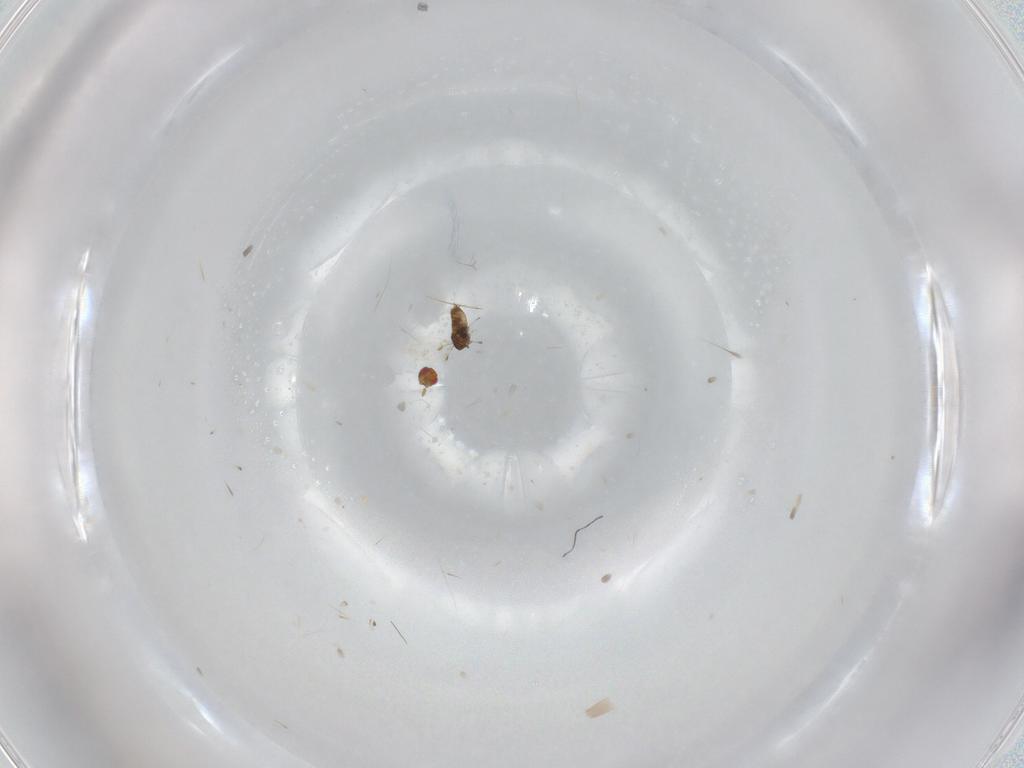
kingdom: Animalia
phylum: Arthropoda
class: Insecta
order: Hymenoptera
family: Trichogrammatidae
